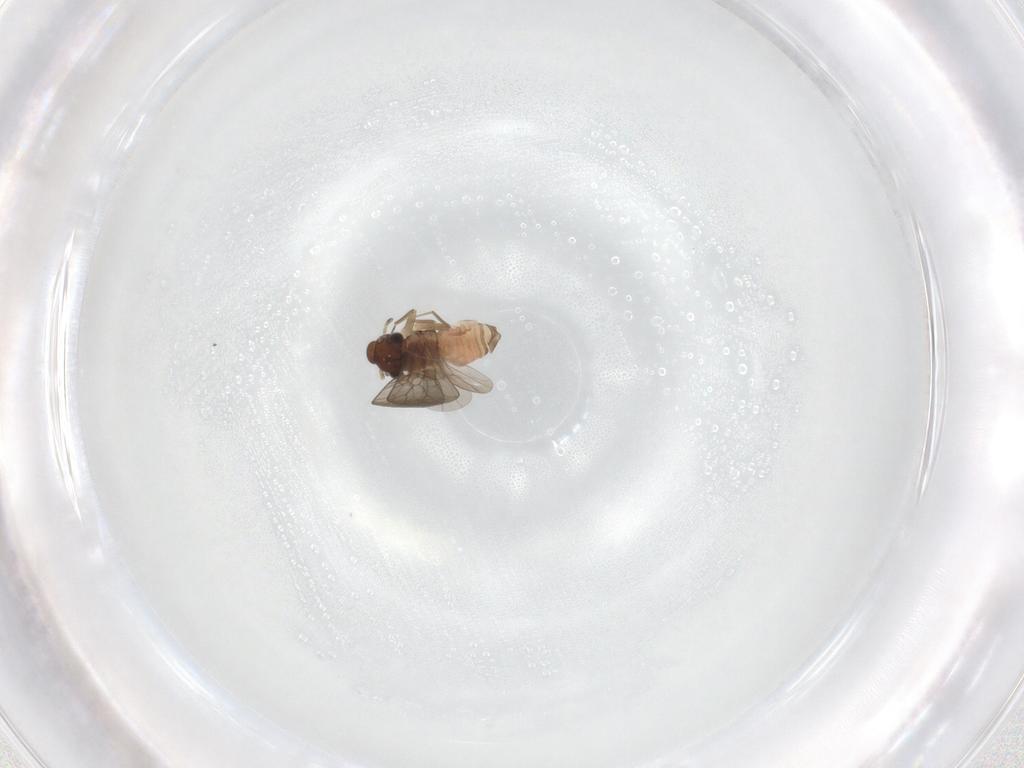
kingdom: Animalia
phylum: Arthropoda
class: Insecta
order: Psocodea
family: Lepidopsocidae
